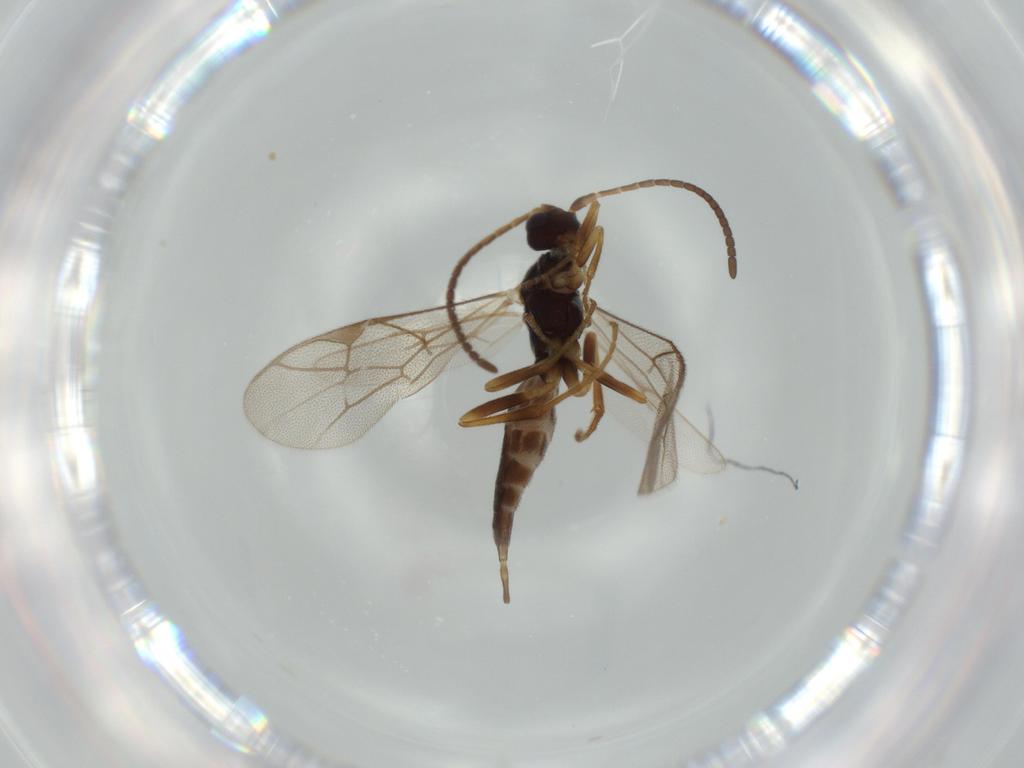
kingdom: Animalia
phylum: Arthropoda
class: Insecta
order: Hymenoptera
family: Ichneumonidae
